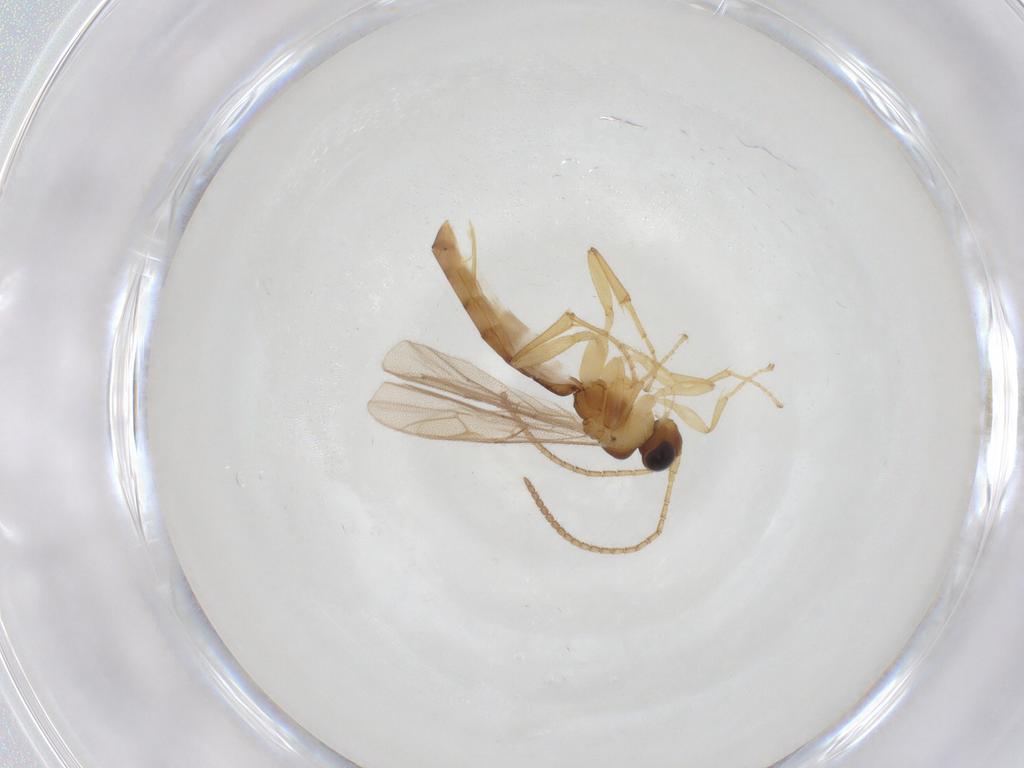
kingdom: Animalia
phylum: Arthropoda
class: Insecta
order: Hymenoptera
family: Ichneumonidae
